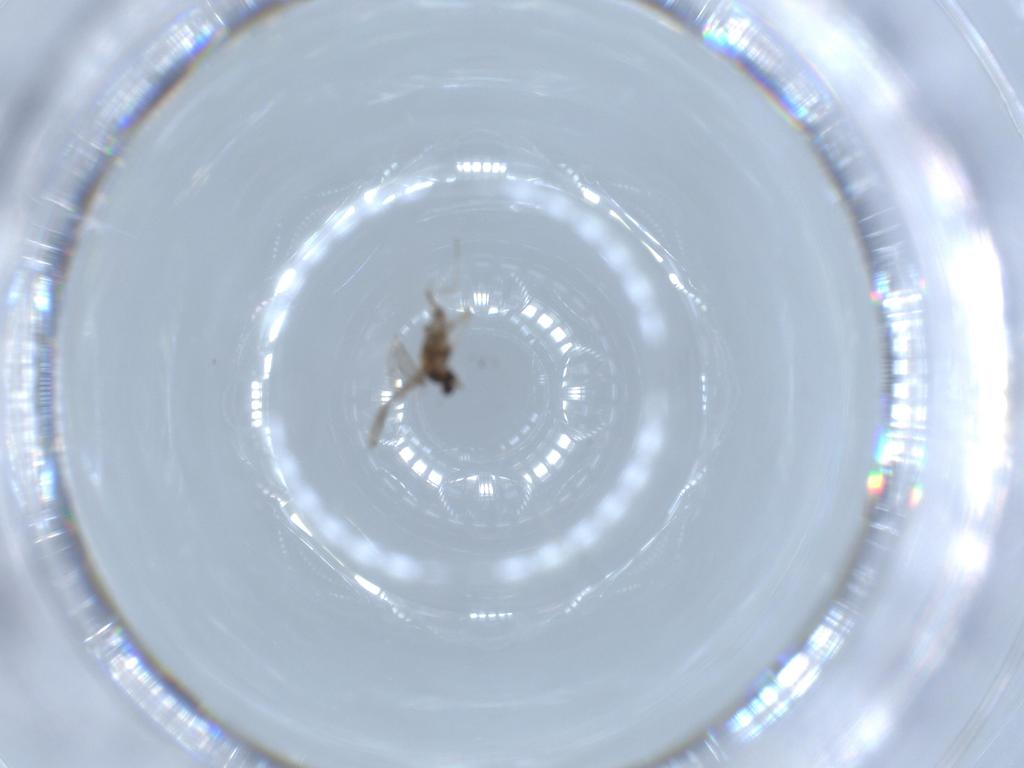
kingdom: Animalia
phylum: Arthropoda
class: Insecta
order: Diptera
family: Cecidomyiidae
